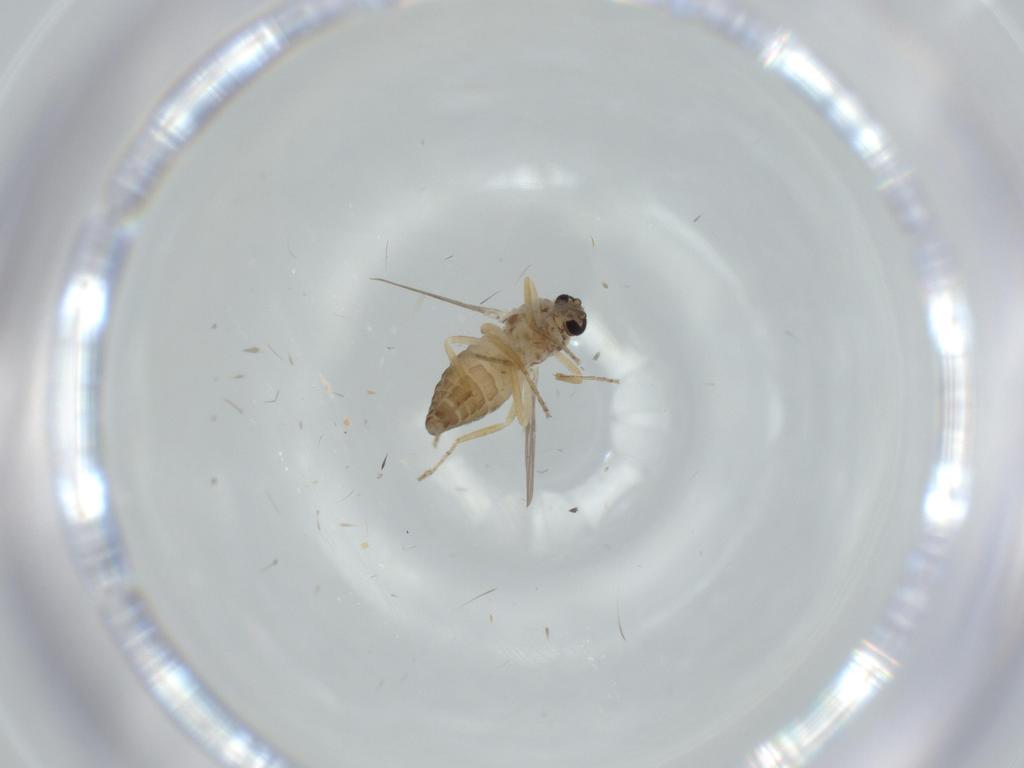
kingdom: Animalia
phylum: Arthropoda
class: Insecta
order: Diptera
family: Ceratopogonidae
